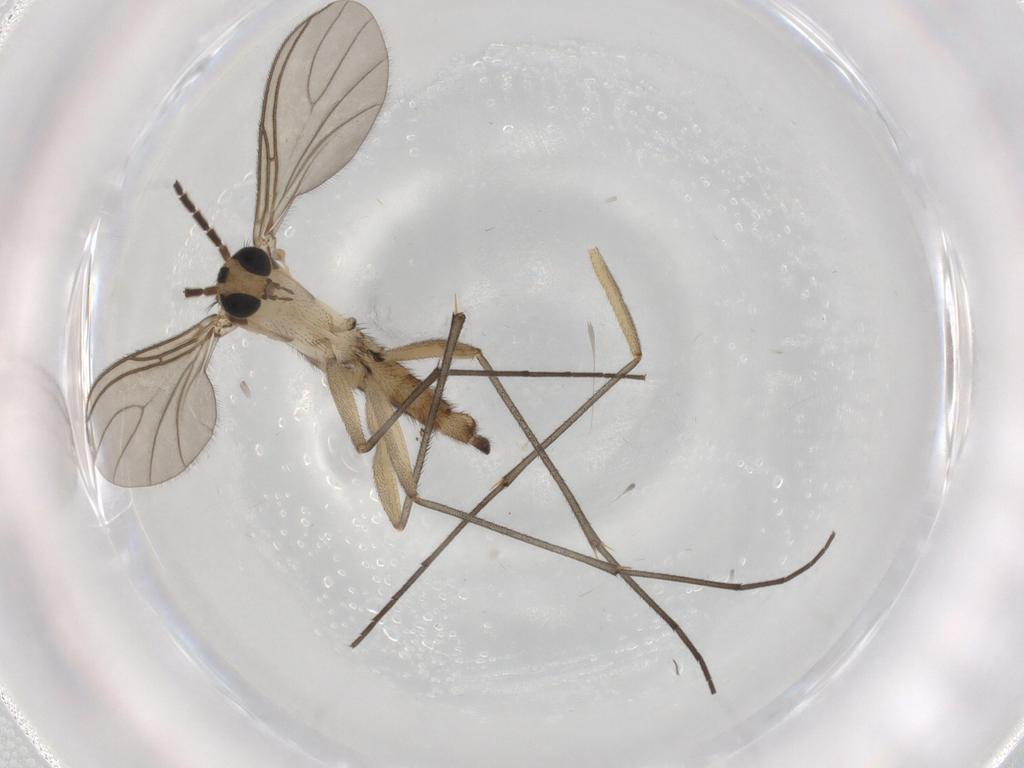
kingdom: Animalia
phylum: Arthropoda
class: Insecta
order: Diptera
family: Sciaridae
